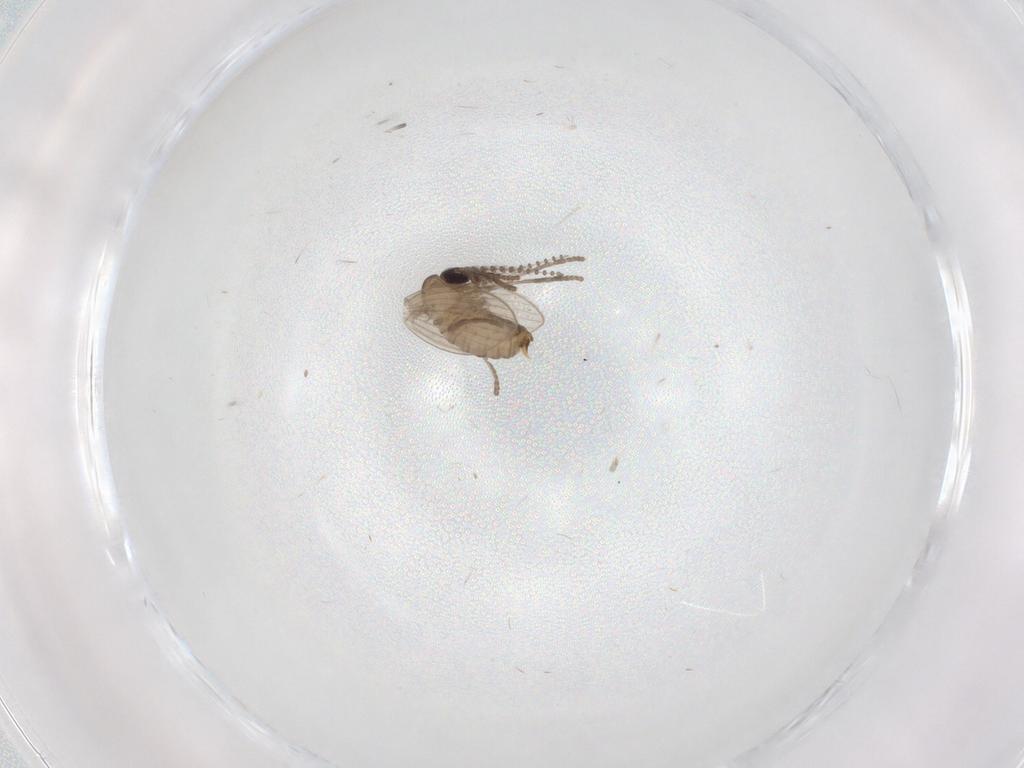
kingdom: Animalia
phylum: Arthropoda
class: Insecta
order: Diptera
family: Psychodidae
